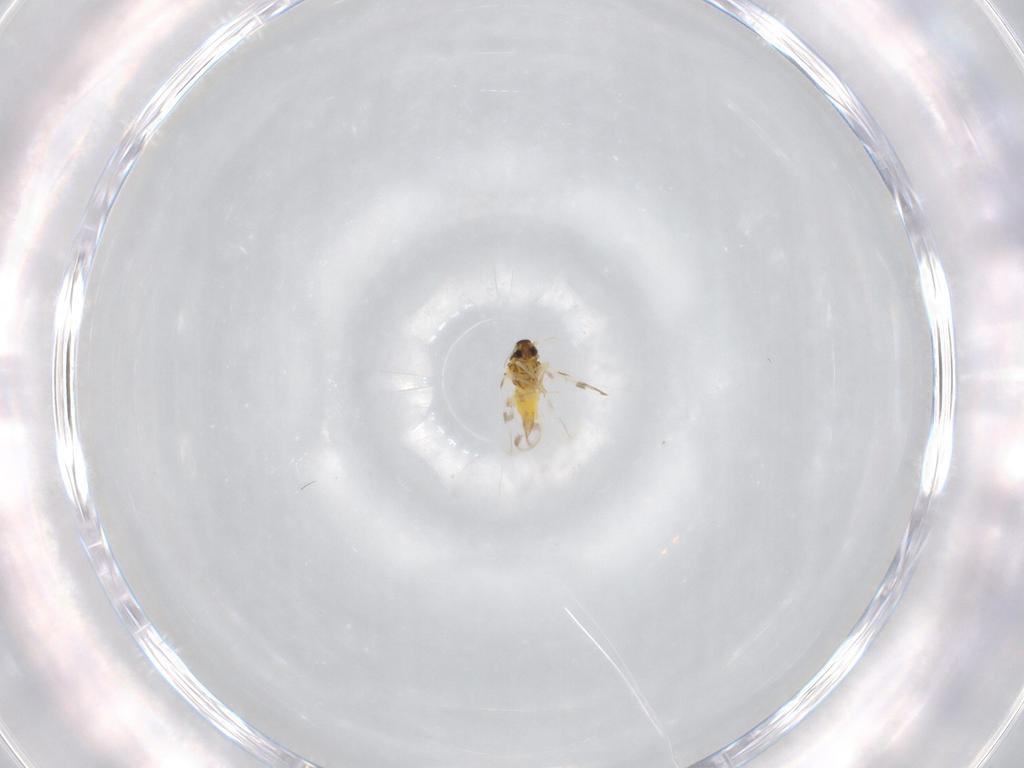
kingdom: Animalia
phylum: Arthropoda
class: Insecta
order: Hemiptera
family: Aleyrodidae
